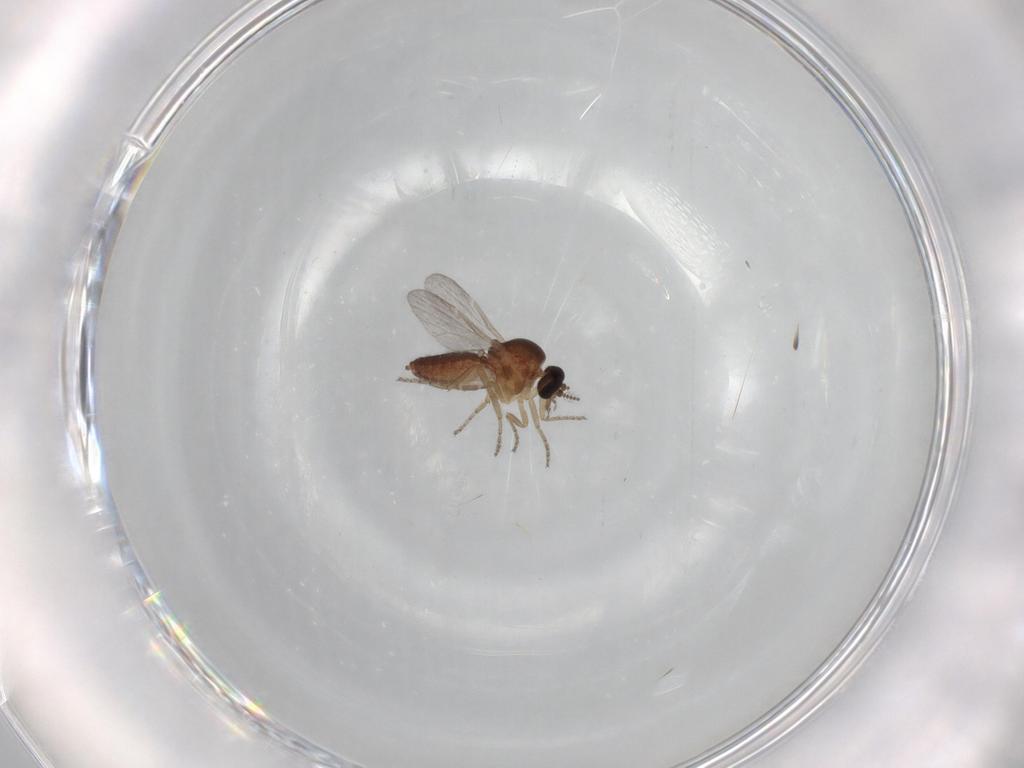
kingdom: Animalia
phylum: Arthropoda
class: Insecta
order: Diptera
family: Ceratopogonidae
